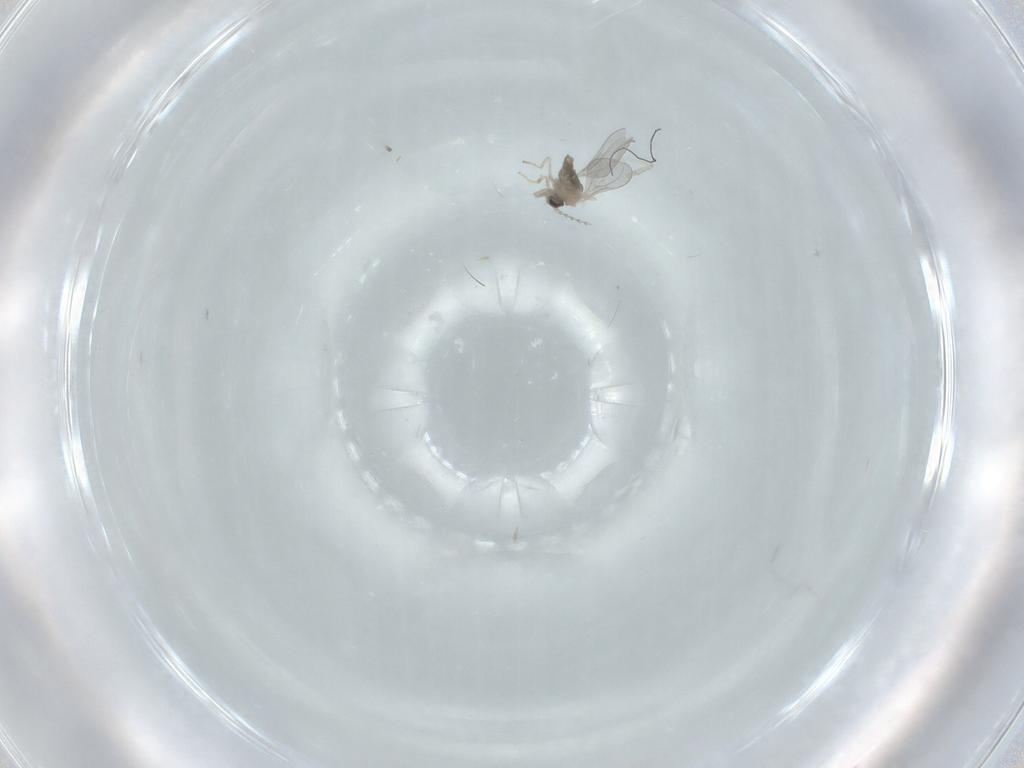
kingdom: Animalia
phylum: Arthropoda
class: Insecta
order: Diptera
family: Cecidomyiidae
